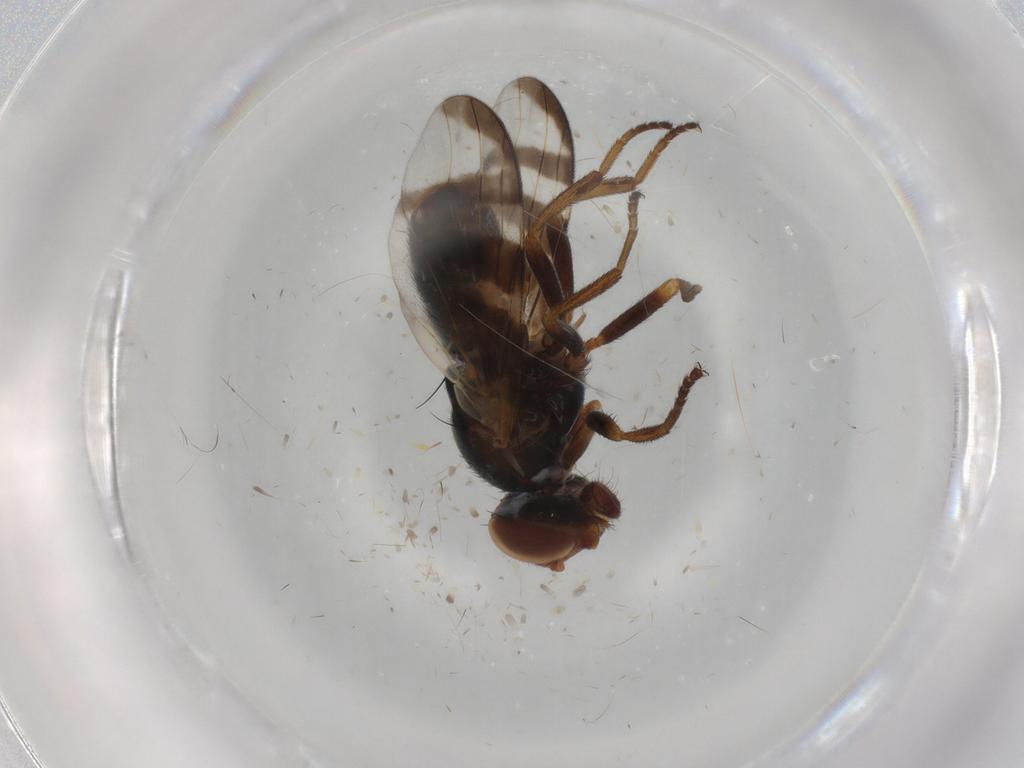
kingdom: Animalia
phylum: Arthropoda
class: Insecta
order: Diptera
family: Platystomatidae
